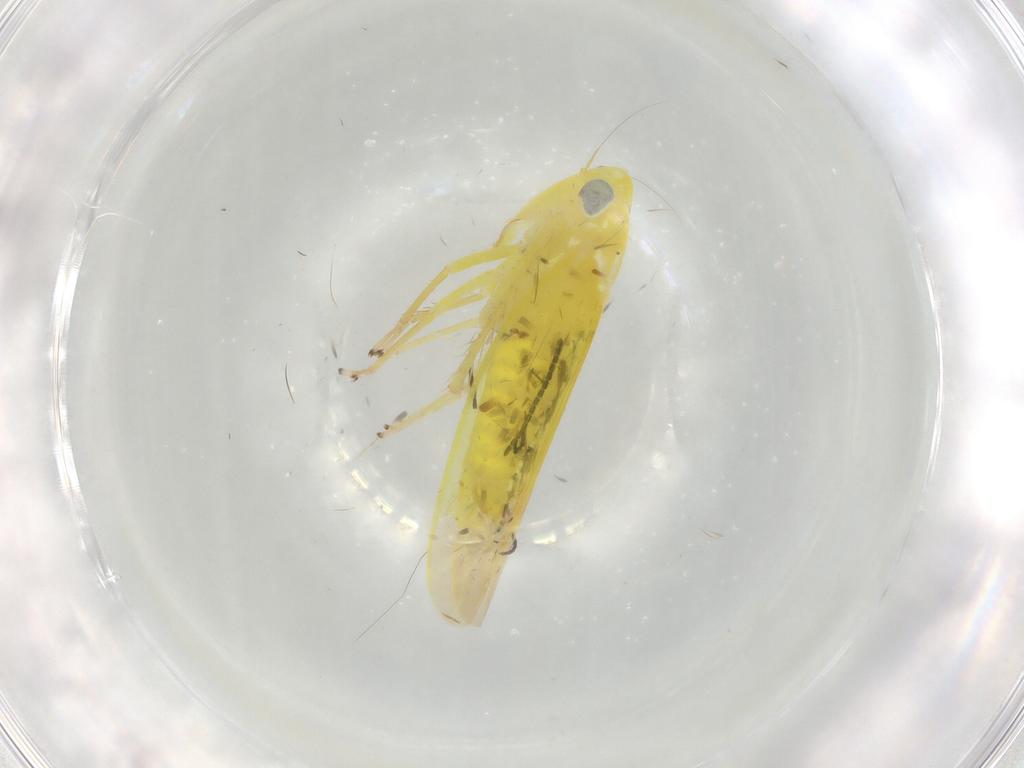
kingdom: Animalia
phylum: Arthropoda
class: Insecta
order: Hemiptera
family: Cicadellidae
